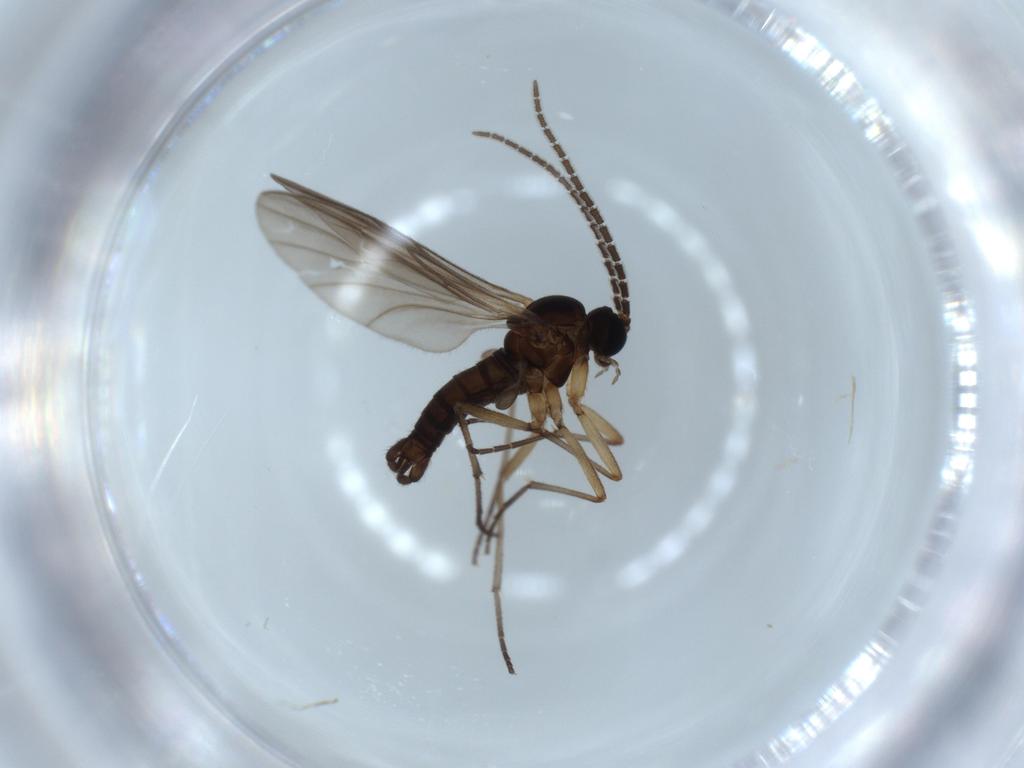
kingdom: Animalia
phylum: Arthropoda
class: Insecta
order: Diptera
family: Sciaridae
